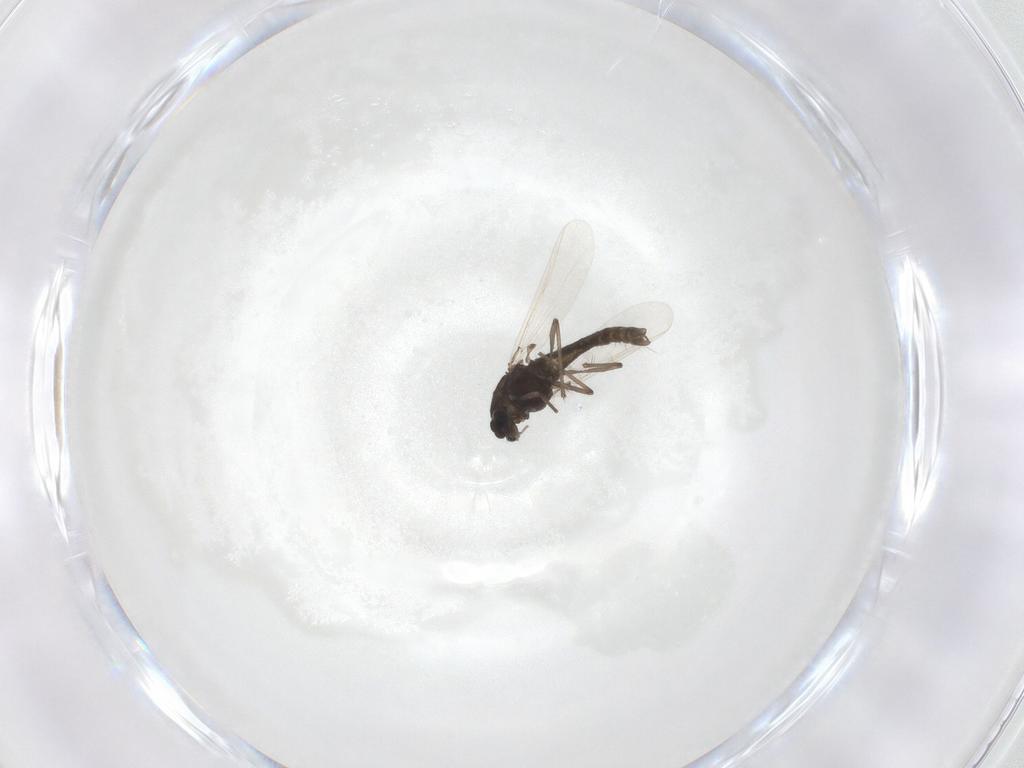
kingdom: Animalia
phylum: Arthropoda
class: Insecta
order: Diptera
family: Chironomidae
